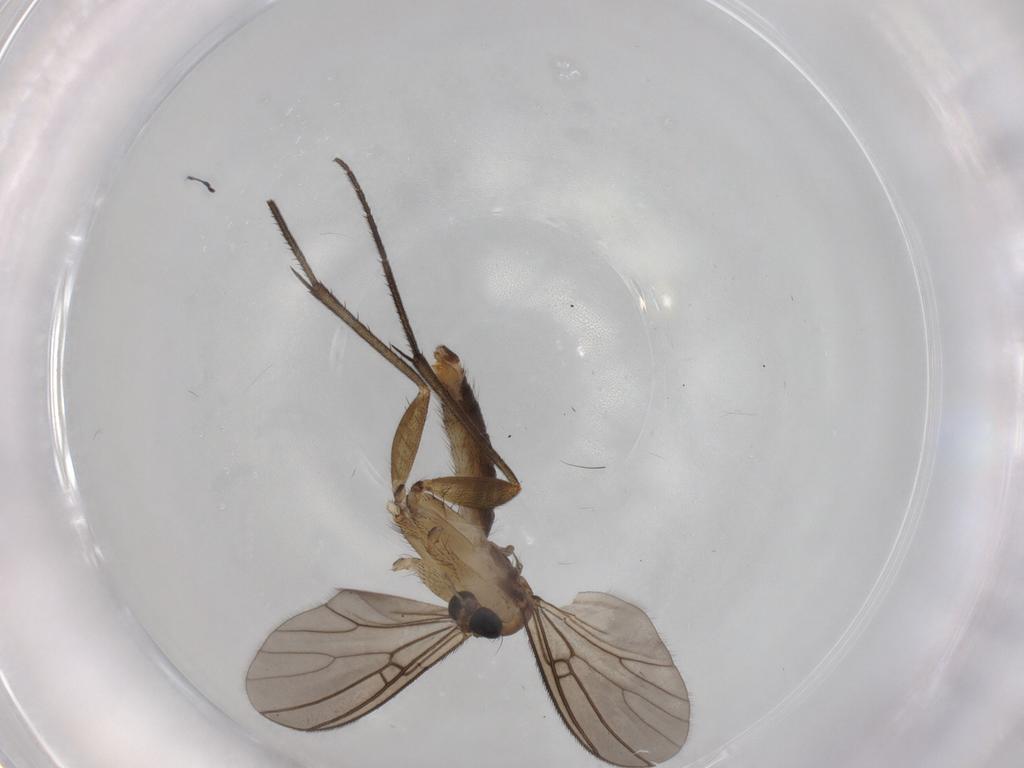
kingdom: Animalia
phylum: Arthropoda
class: Insecta
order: Diptera
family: Cecidomyiidae
